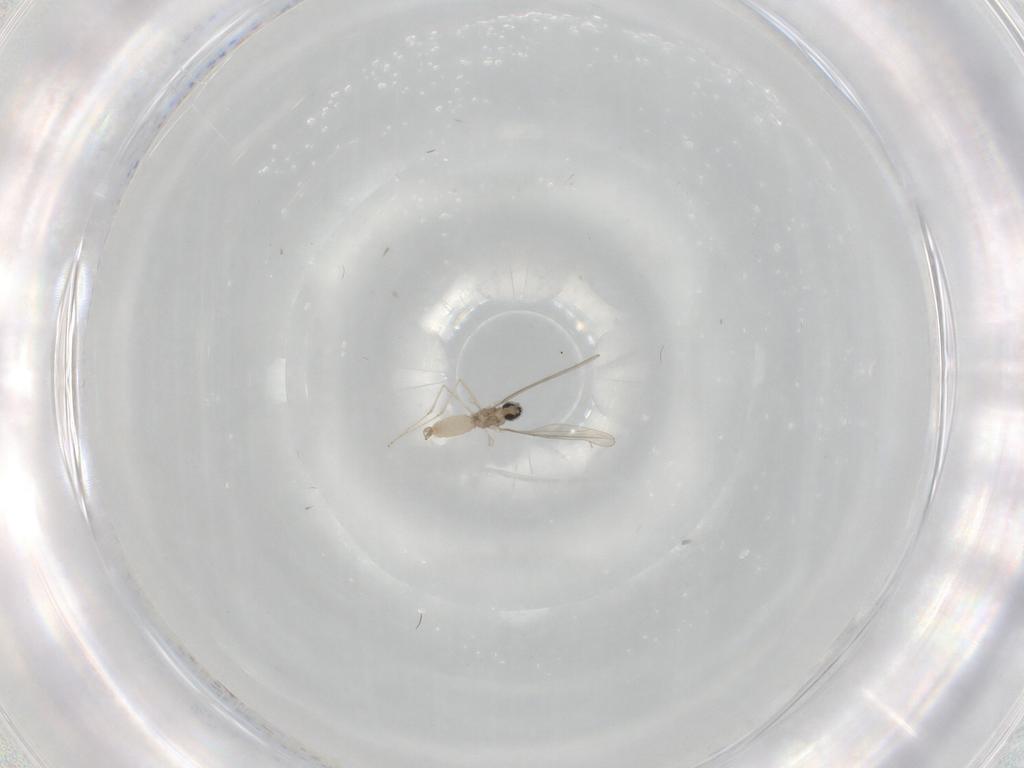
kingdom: Animalia
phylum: Arthropoda
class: Insecta
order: Diptera
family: Cecidomyiidae
